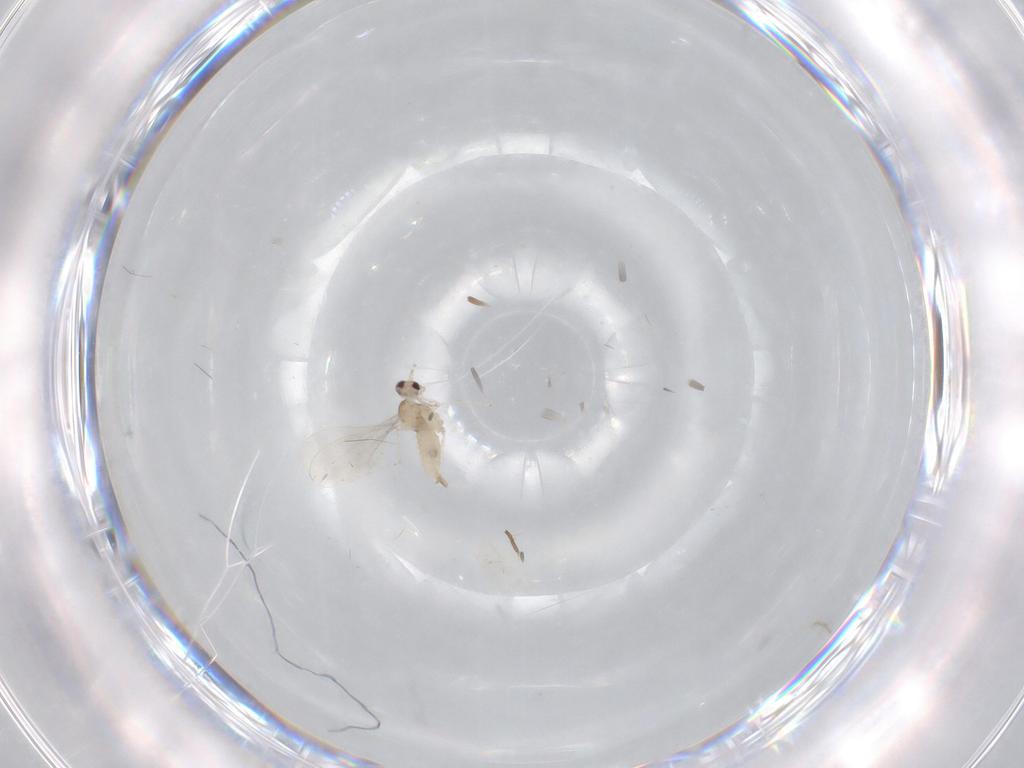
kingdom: Animalia
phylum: Arthropoda
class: Insecta
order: Diptera
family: Cecidomyiidae
